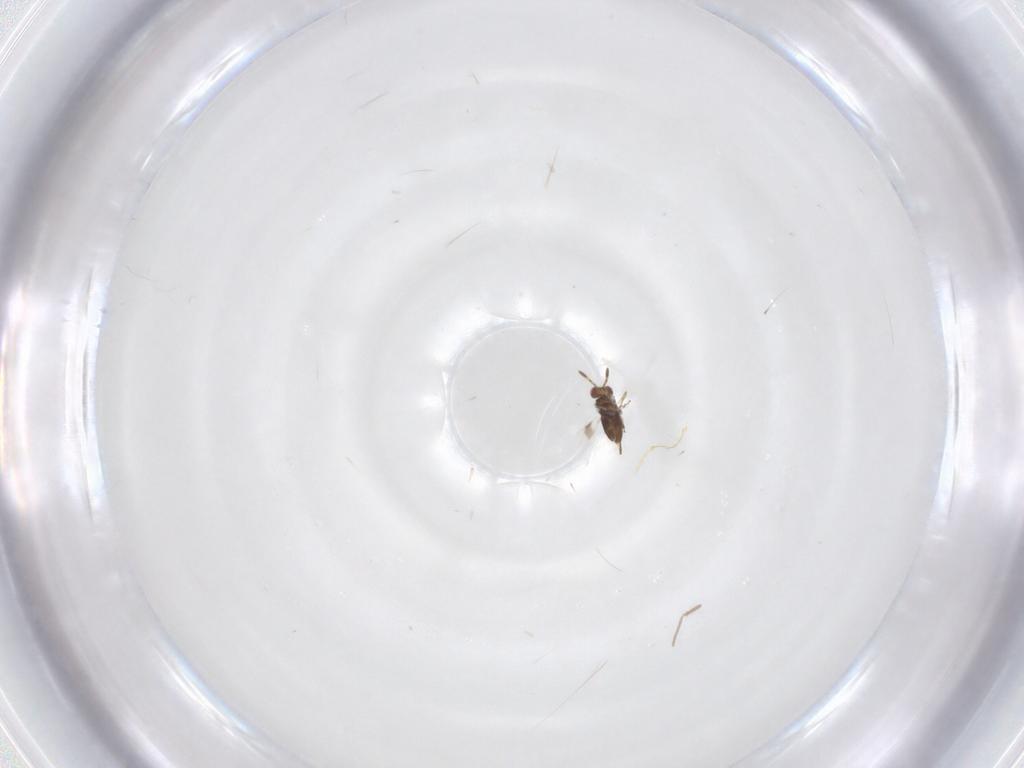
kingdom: Animalia
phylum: Arthropoda
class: Insecta
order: Hymenoptera
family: Azotidae
